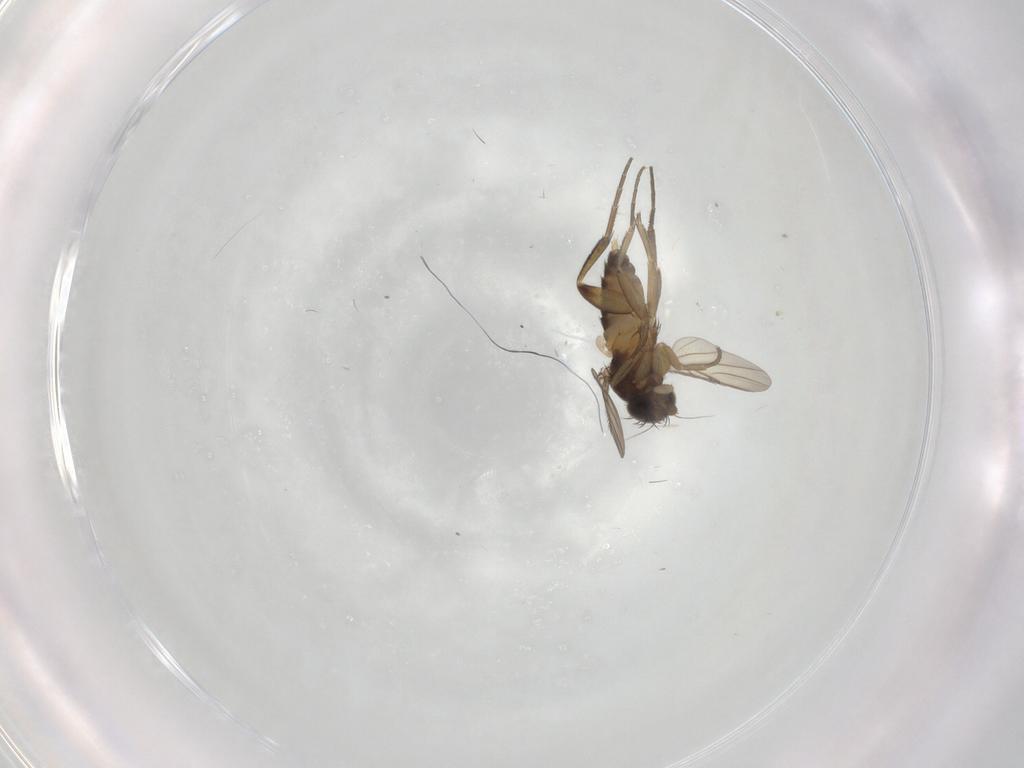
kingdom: Animalia
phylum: Arthropoda
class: Insecta
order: Diptera
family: Phoridae
